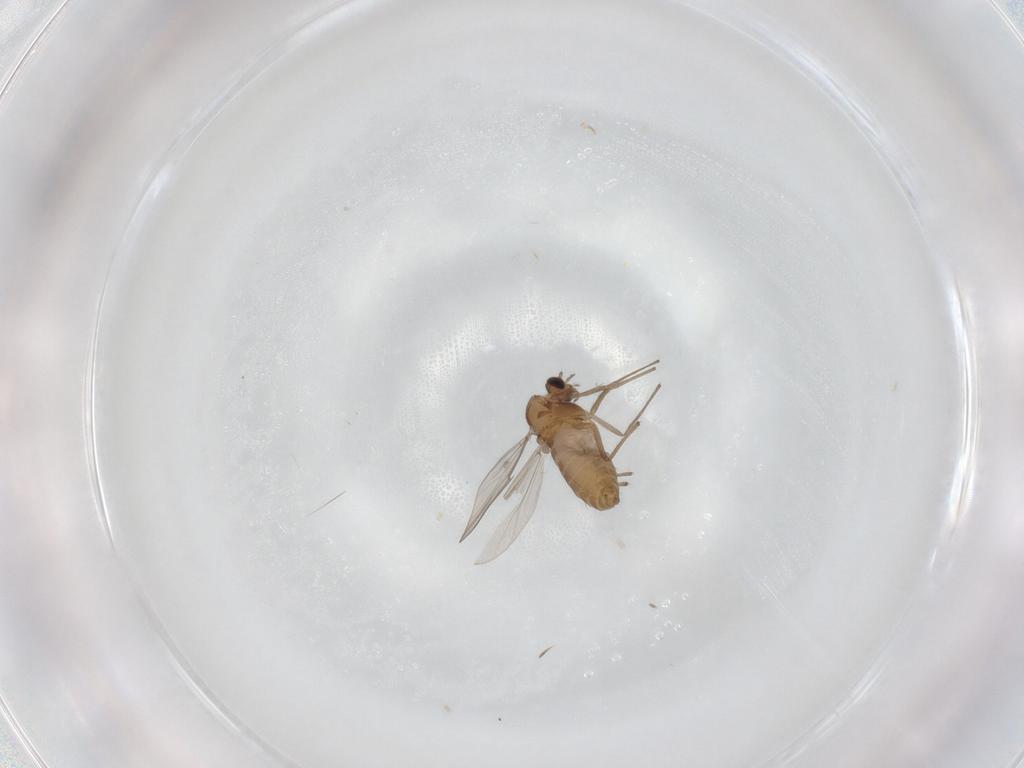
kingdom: Animalia
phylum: Arthropoda
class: Insecta
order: Diptera
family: Chironomidae
